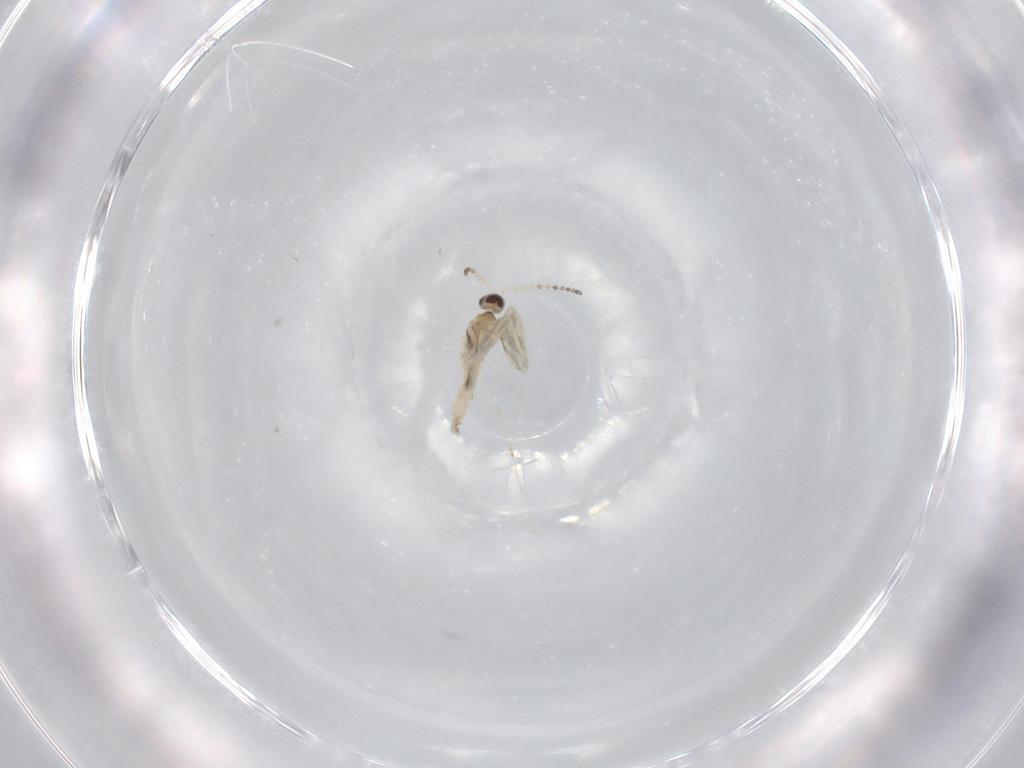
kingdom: Animalia
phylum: Arthropoda
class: Insecta
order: Diptera
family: Cecidomyiidae
